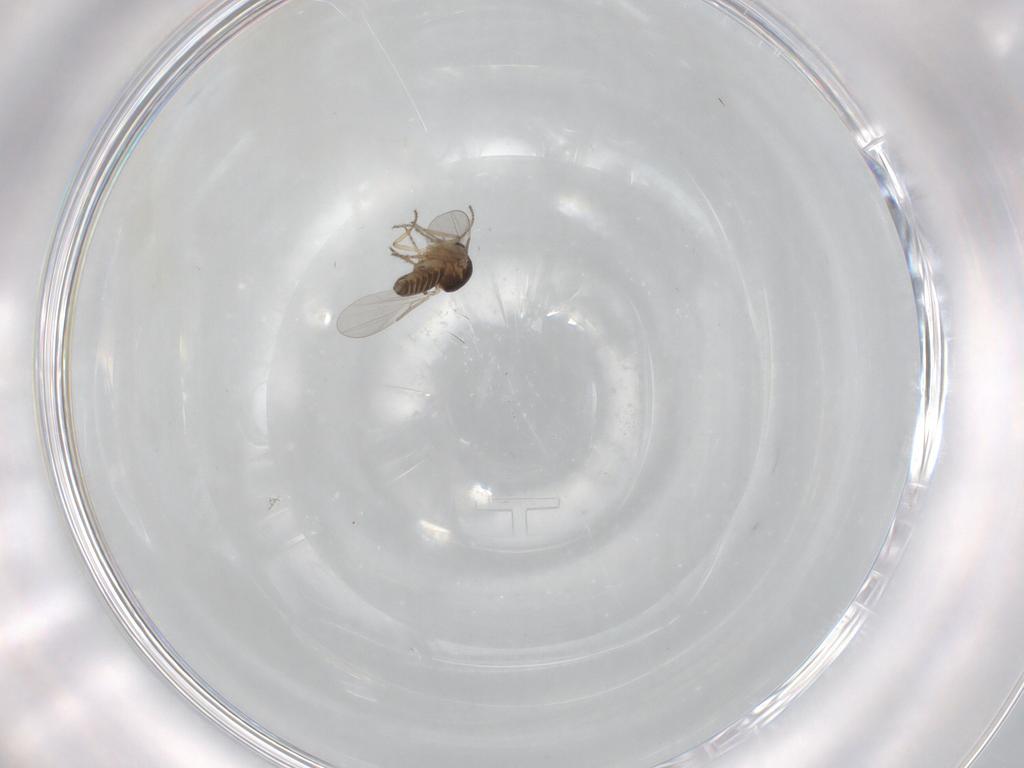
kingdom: Animalia
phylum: Arthropoda
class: Insecta
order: Diptera
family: Ceratopogonidae
